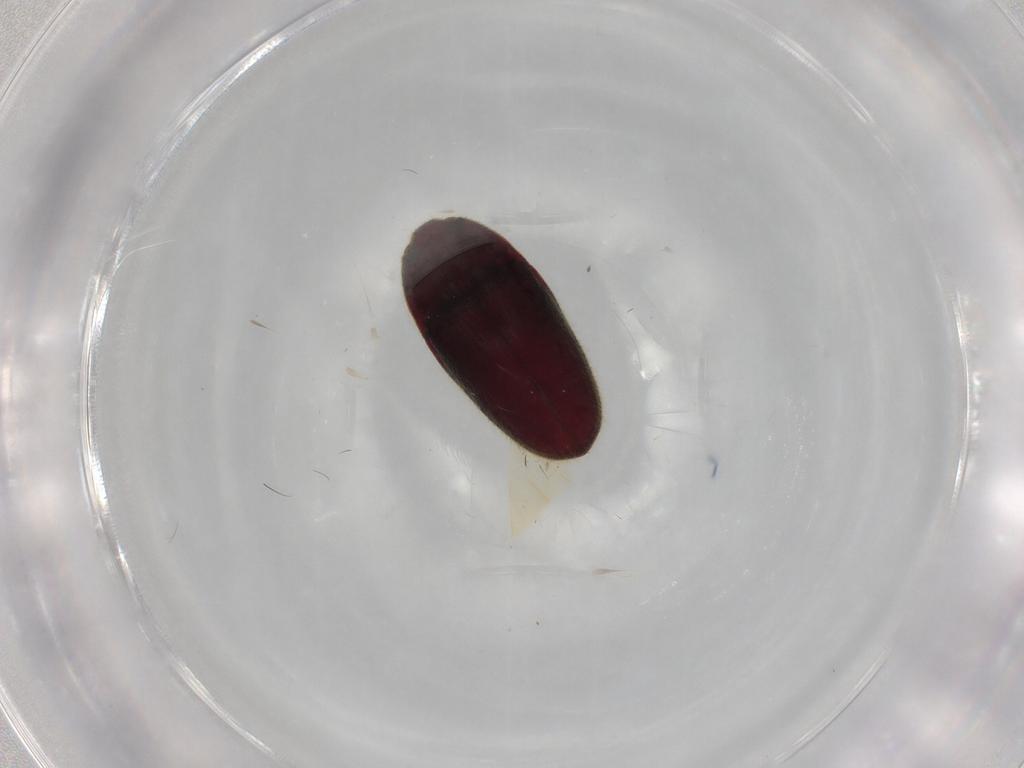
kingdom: Animalia
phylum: Arthropoda
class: Insecta
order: Coleoptera
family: Throscidae
